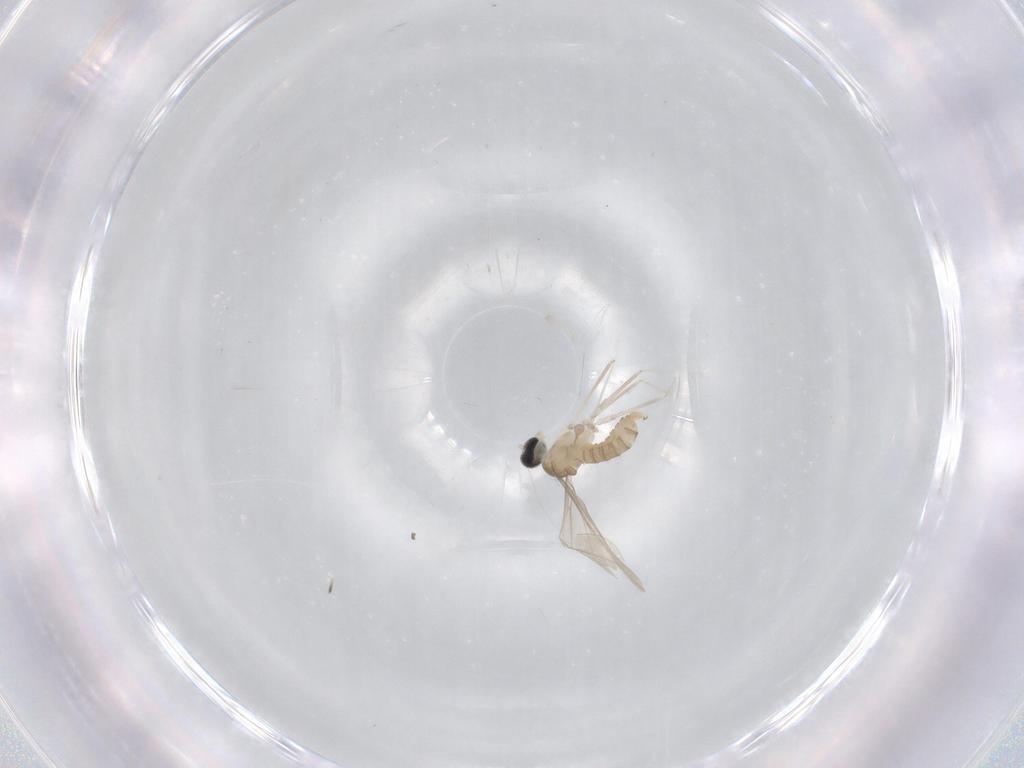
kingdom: Animalia
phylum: Arthropoda
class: Insecta
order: Diptera
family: Cecidomyiidae
